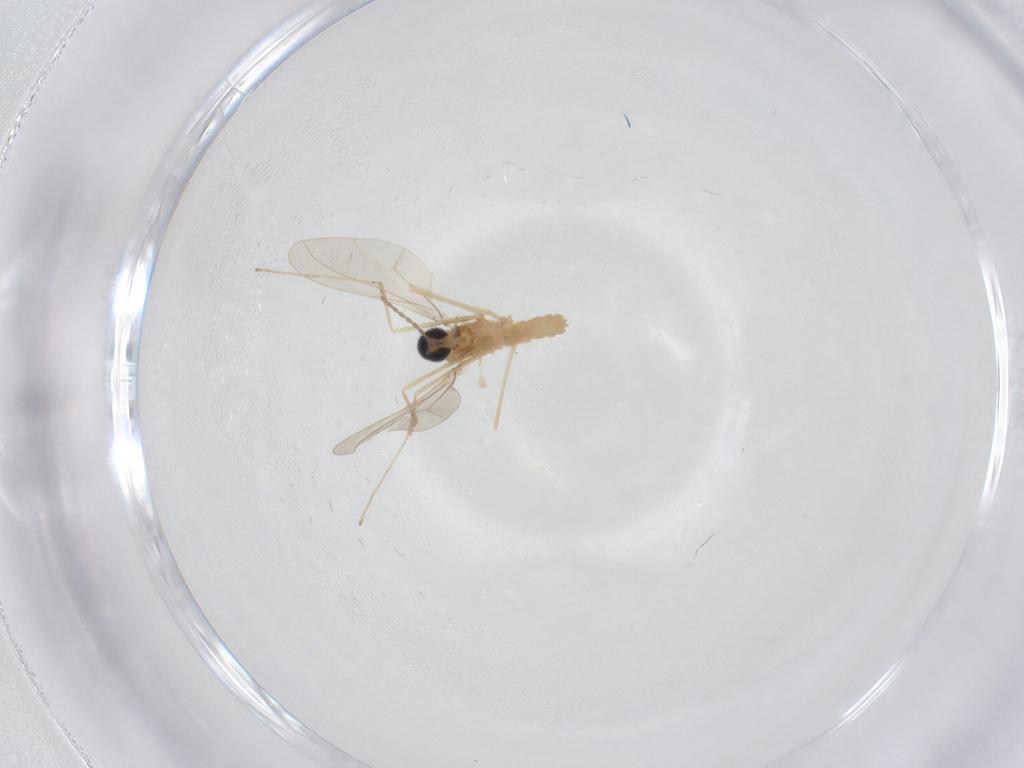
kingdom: Animalia
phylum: Arthropoda
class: Insecta
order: Diptera
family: Cecidomyiidae
